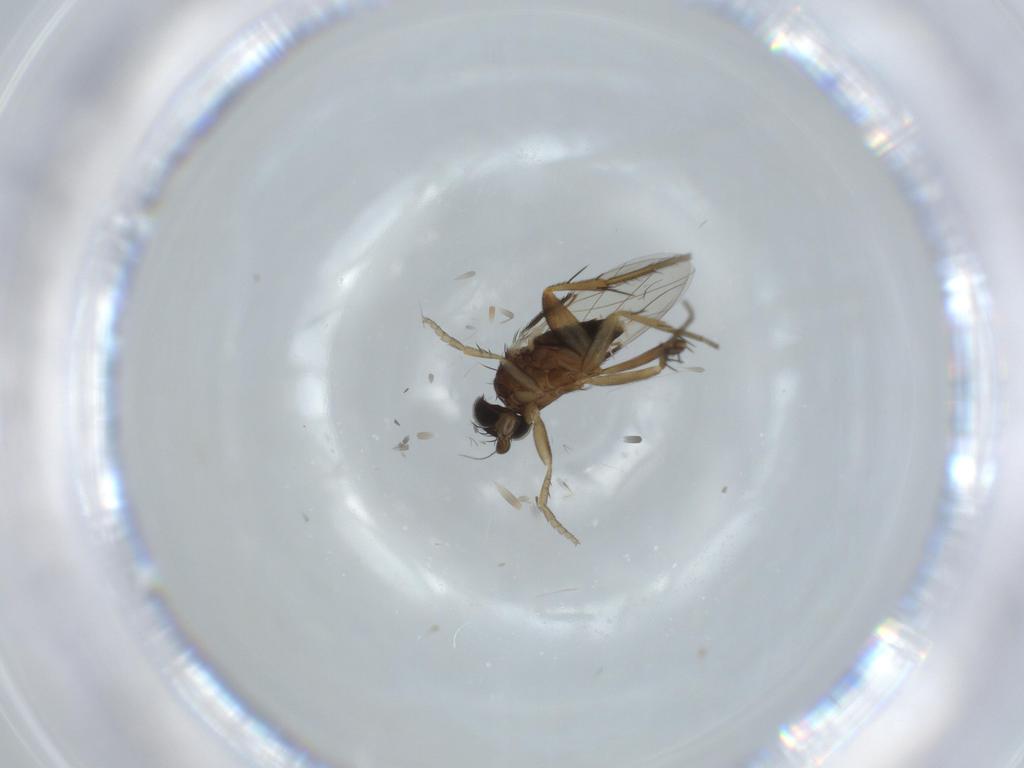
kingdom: Animalia
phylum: Arthropoda
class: Insecta
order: Diptera
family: Phoridae
